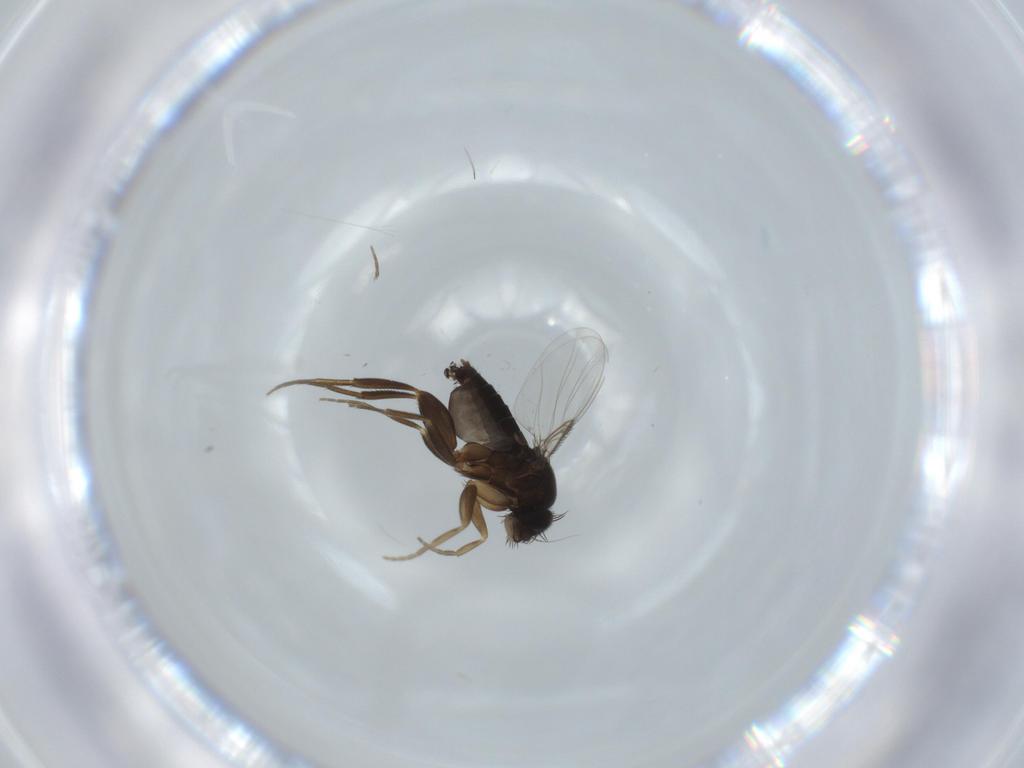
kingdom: Animalia
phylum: Arthropoda
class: Insecta
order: Diptera
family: Phoridae
